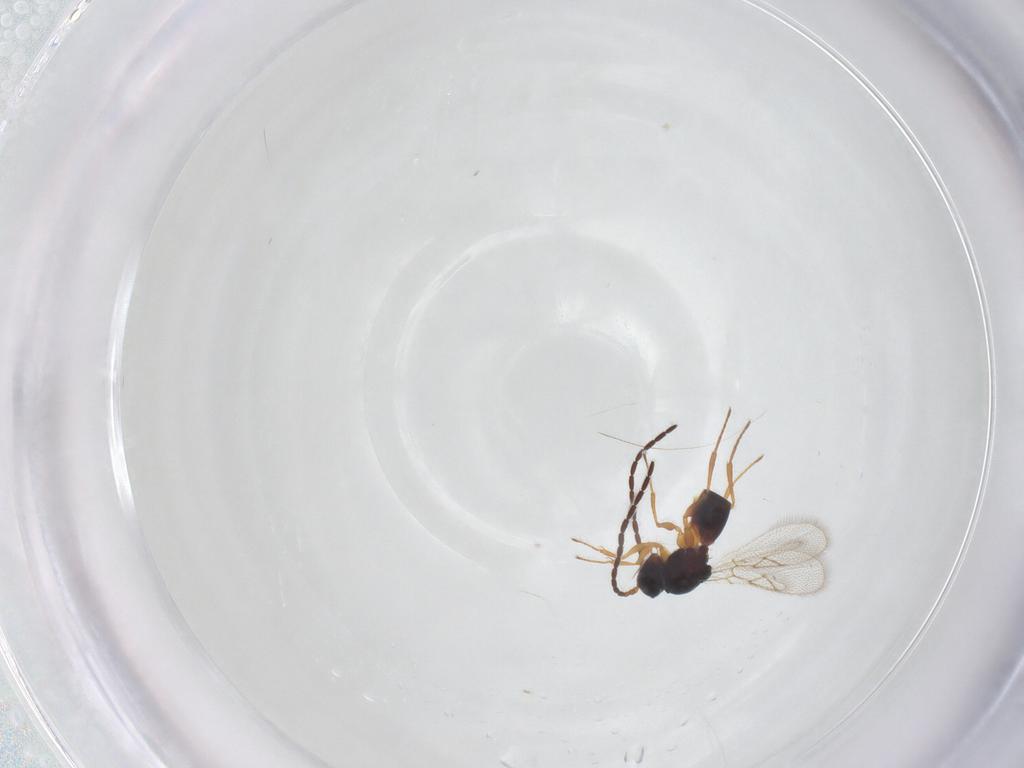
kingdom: Animalia
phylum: Arthropoda
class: Insecta
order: Hymenoptera
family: Figitidae
